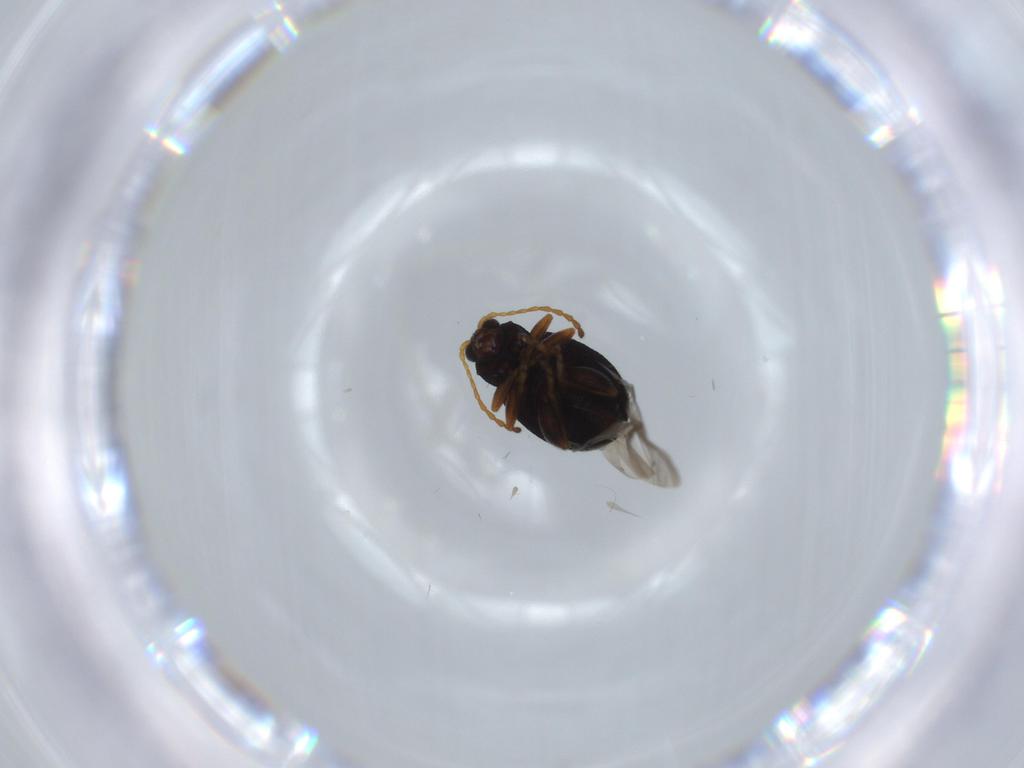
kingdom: Animalia
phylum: Arthropoda
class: Insecta
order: Coleoptera
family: Chrysomelidae
